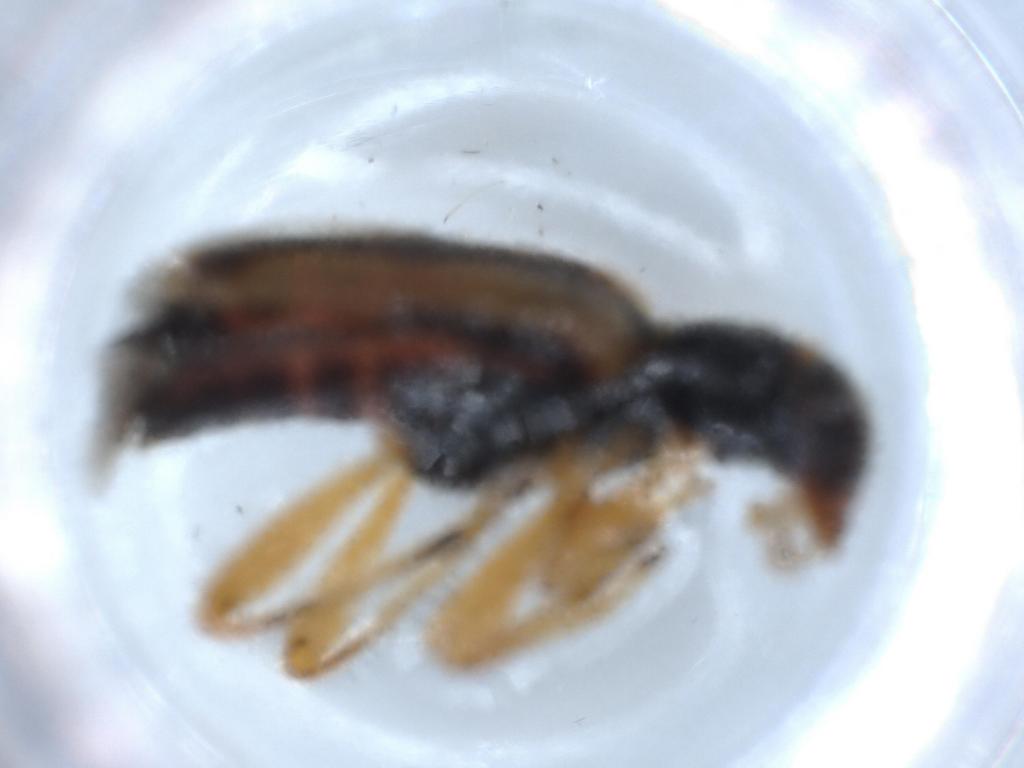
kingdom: Animalia
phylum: Arthropoda
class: Insecta
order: Coleoptera
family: Cleridae
